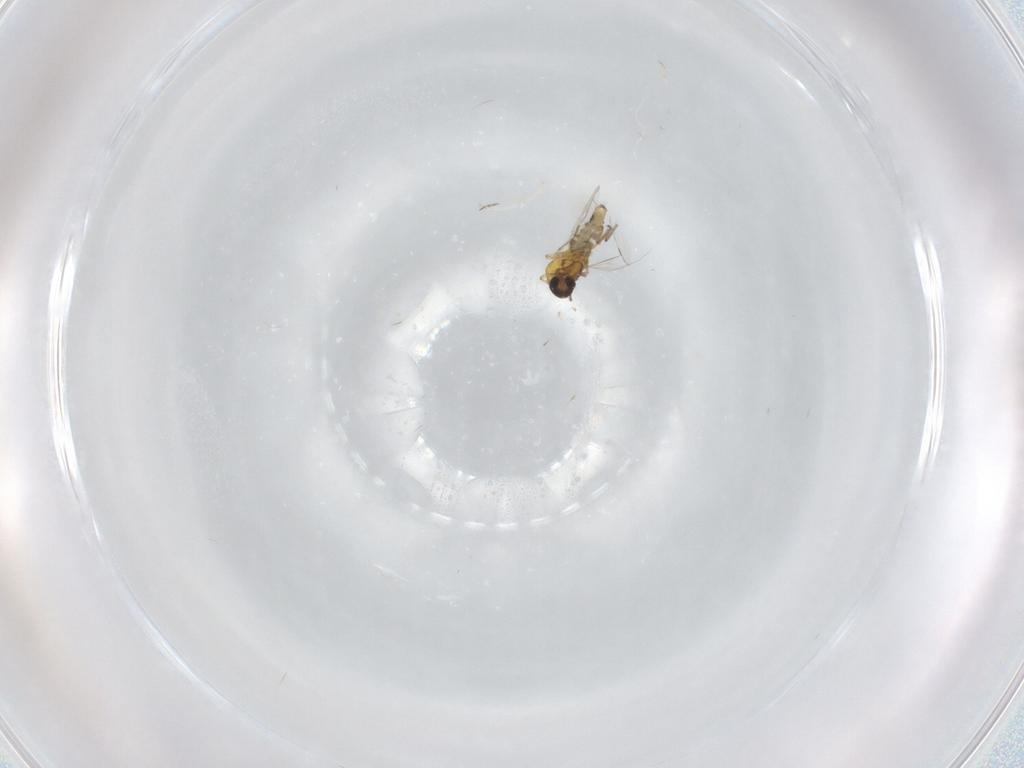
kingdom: Animalia
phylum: Arthropoda
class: Insecta
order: Diptera
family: Ceratopogonidae
